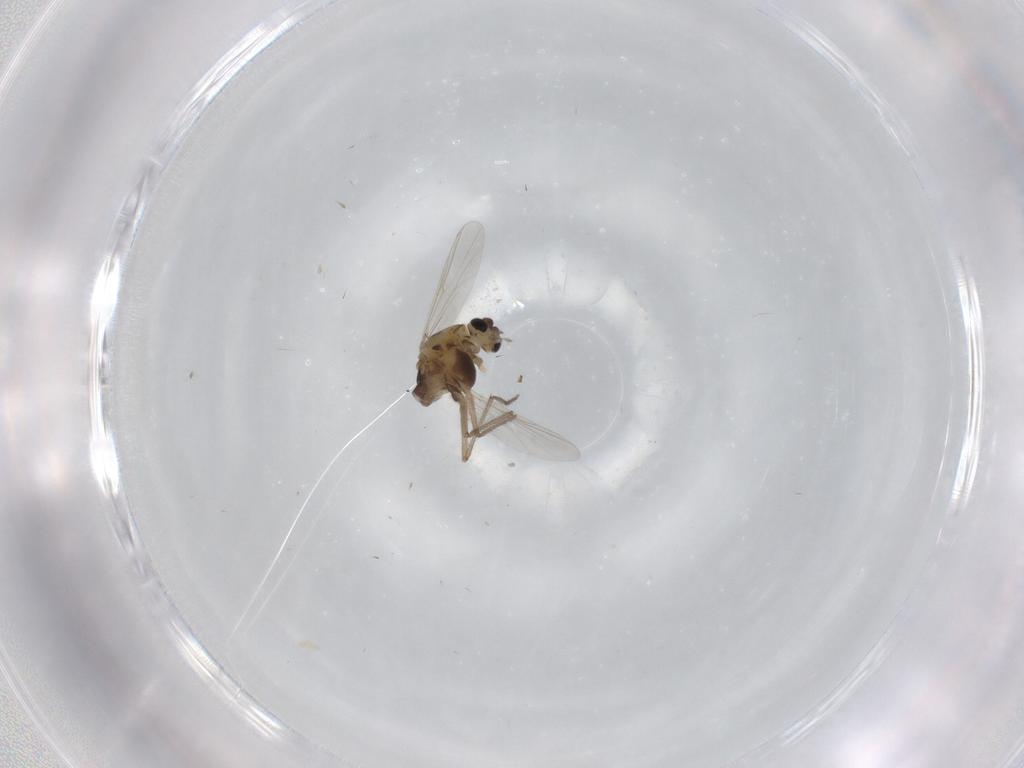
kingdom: Animalia
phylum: Arthropoda
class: Insecta
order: Diptera
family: Chironomidae
